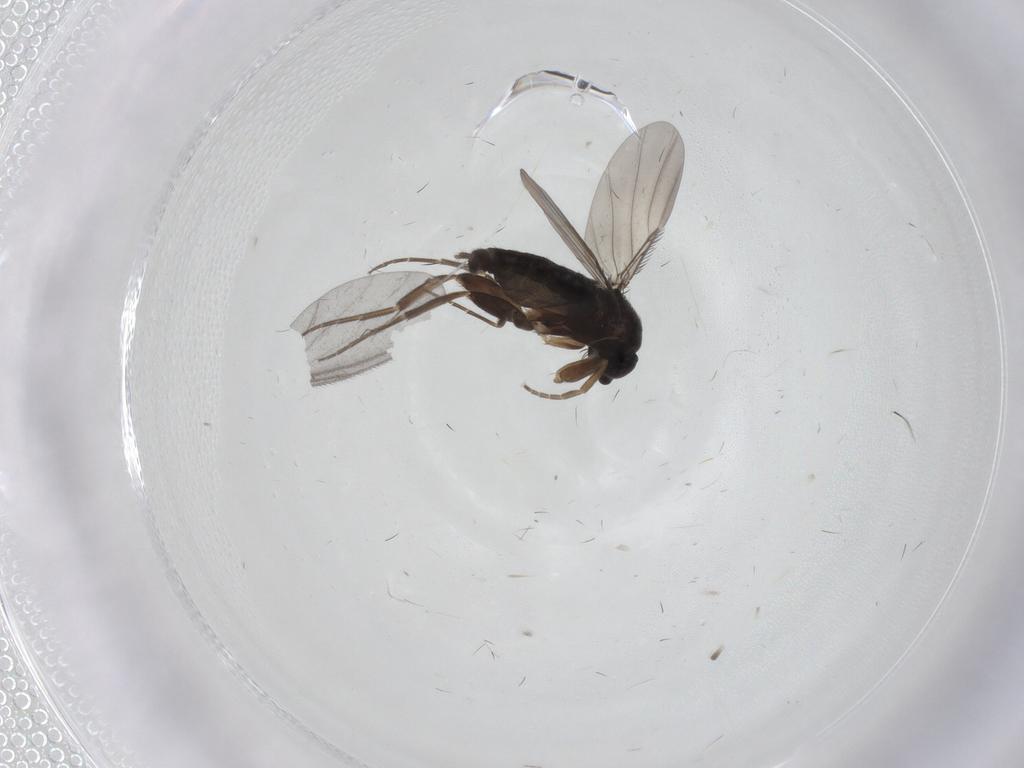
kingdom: Animalia
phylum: Arthropoda
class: Insecta
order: Diptera
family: Phoridae
